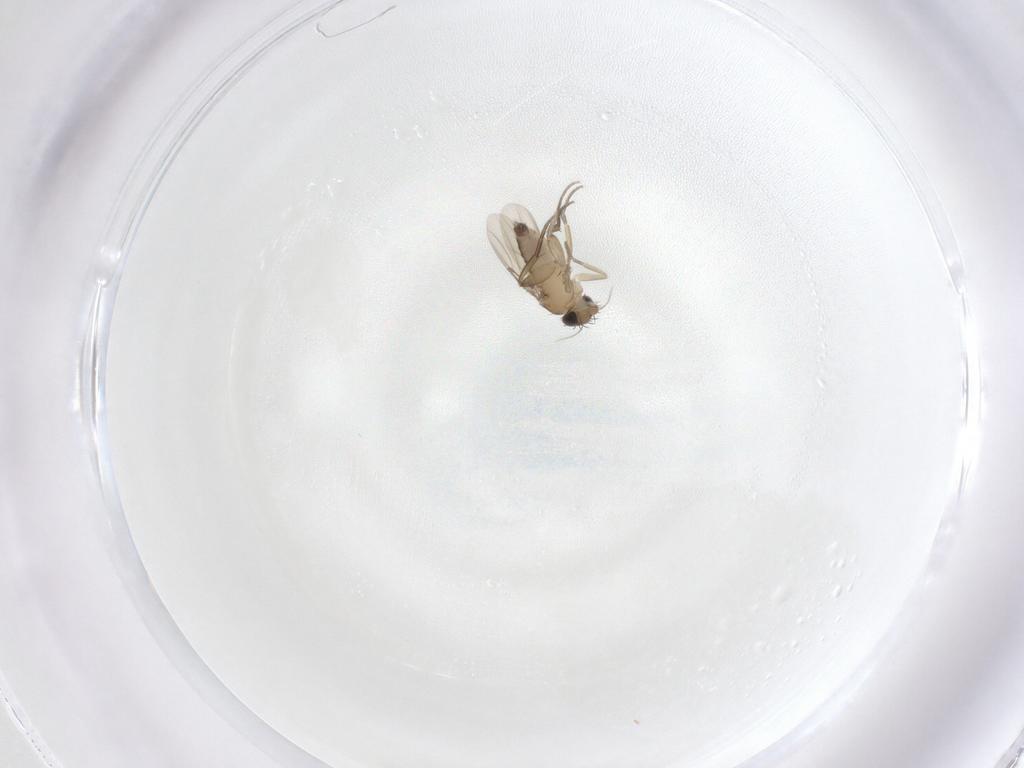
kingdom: Animalia
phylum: Arthropoda
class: Insecta
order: Diptera
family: Phoridae
